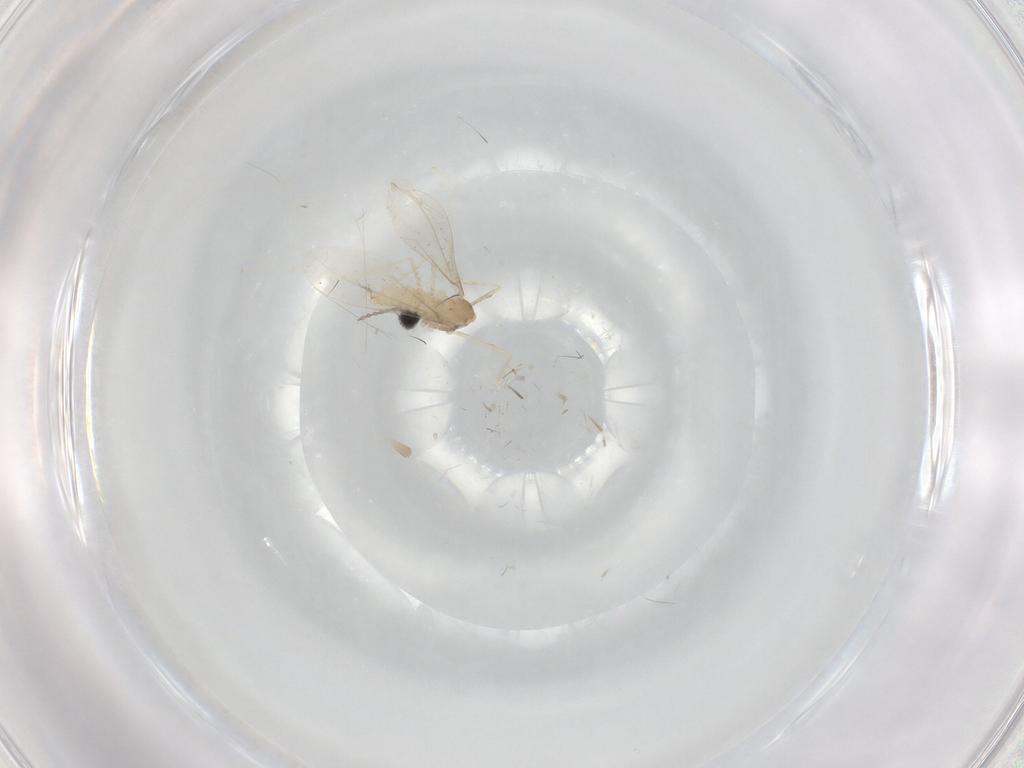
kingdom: Animalia
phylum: Arthropoda
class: Insecta
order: Diptera
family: Cecidomyiidae
